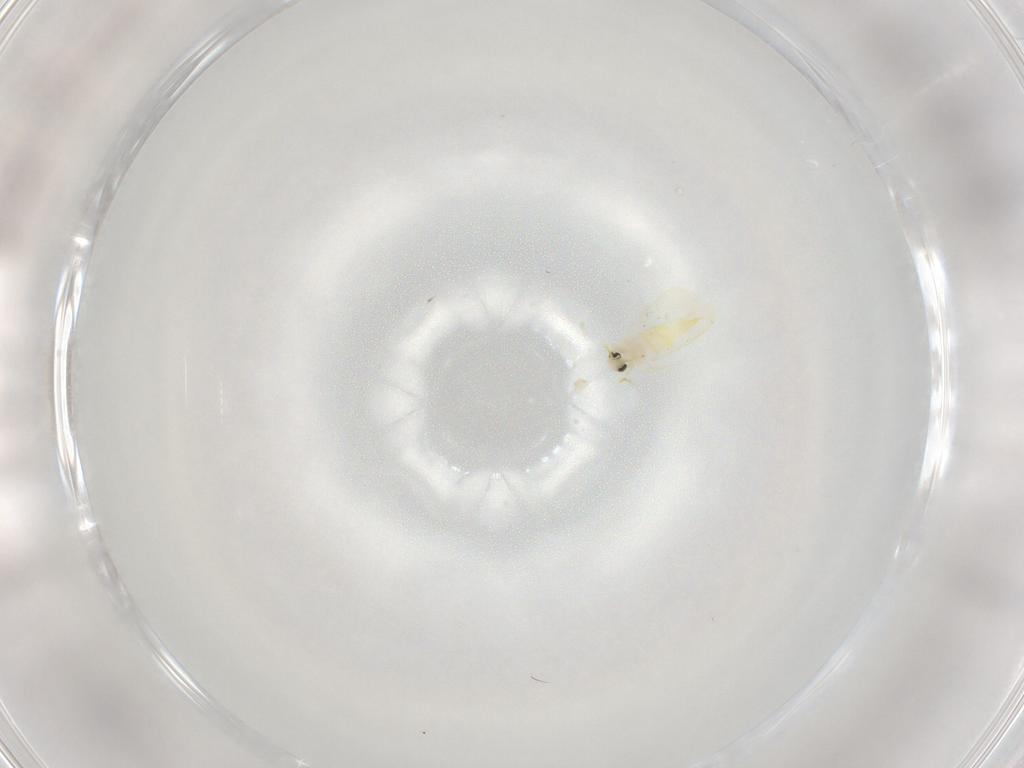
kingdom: Animalia
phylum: Arthropoda
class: Insecta
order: Hemiptera
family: Aleyrodidae
